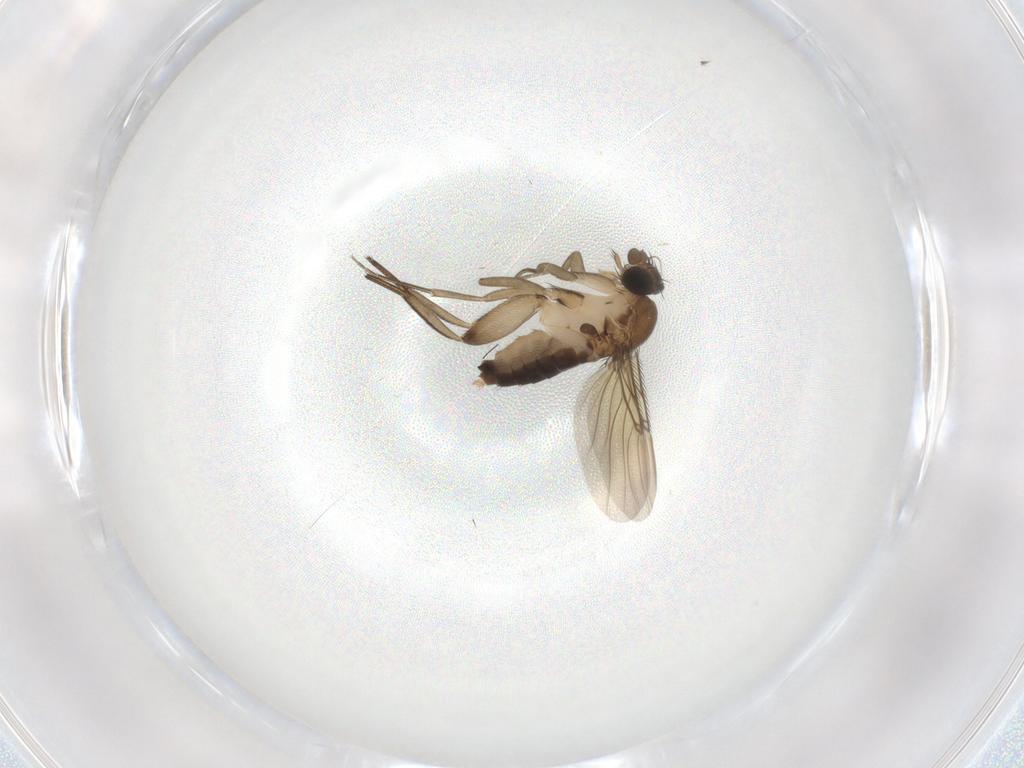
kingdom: Animalia
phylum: Arthropoda
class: Insecta
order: Diptera
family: Phoridae
